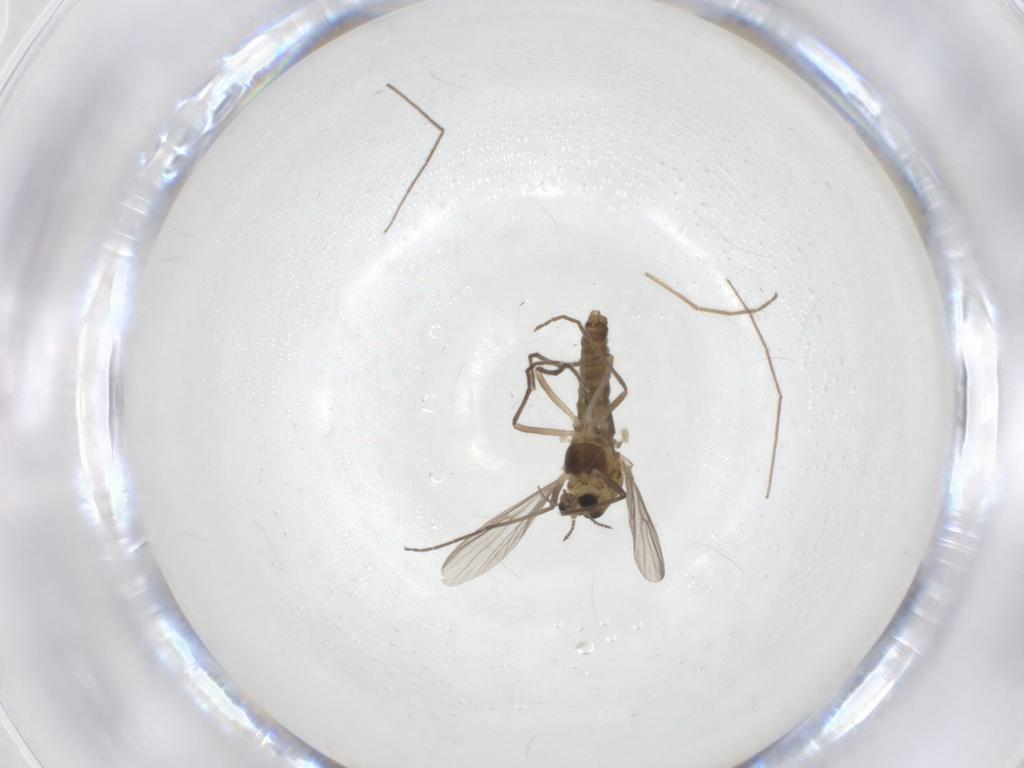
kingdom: Animalia
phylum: Arthropoda
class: Insecta
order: Diptera
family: Chironomidae
